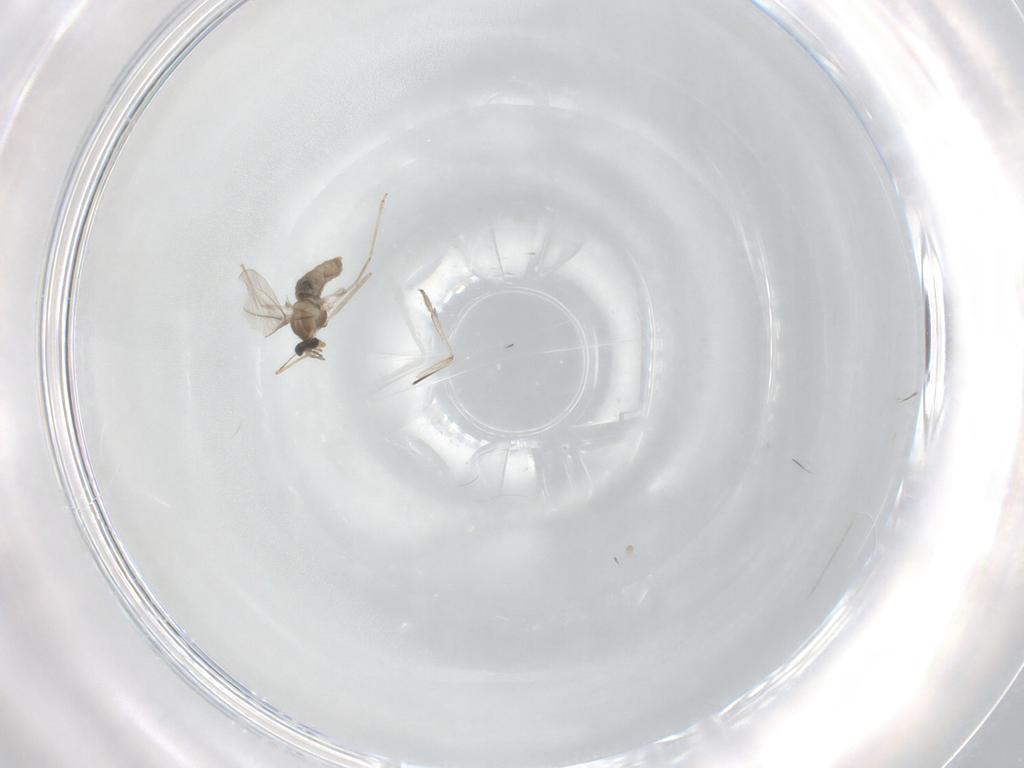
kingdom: Animalia
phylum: Arthropoda
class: Insecta
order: Diptera
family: Psychodidae
